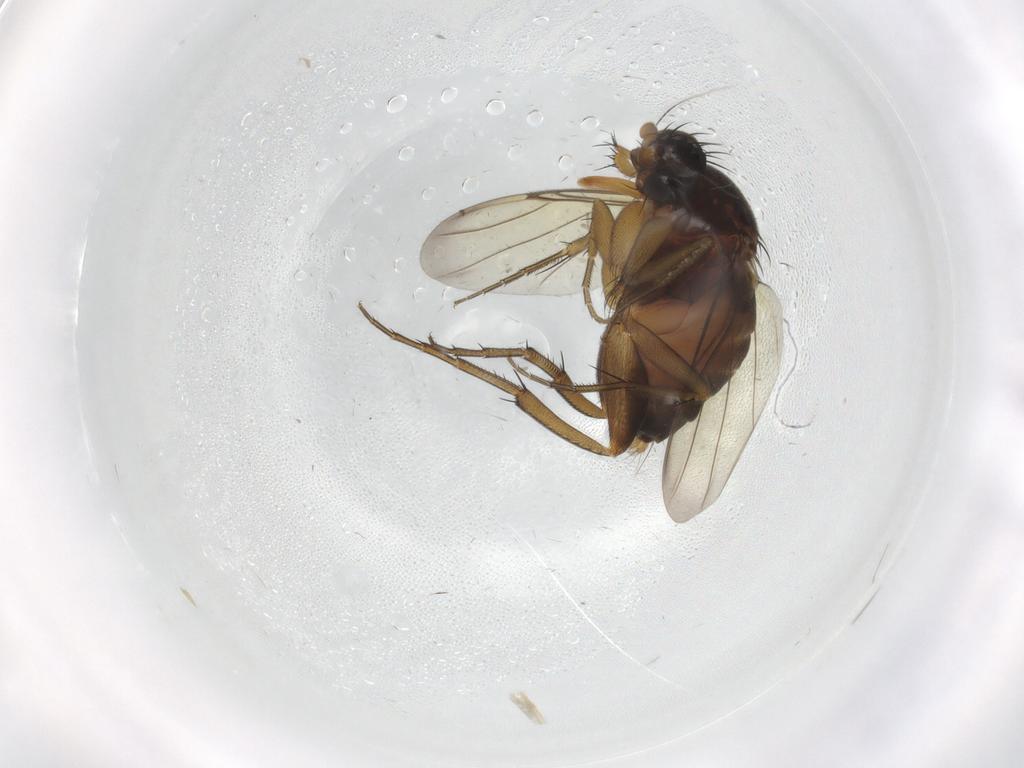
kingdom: Animalia
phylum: Arthropoda
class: Insecta
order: Diptera
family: Phoridae
